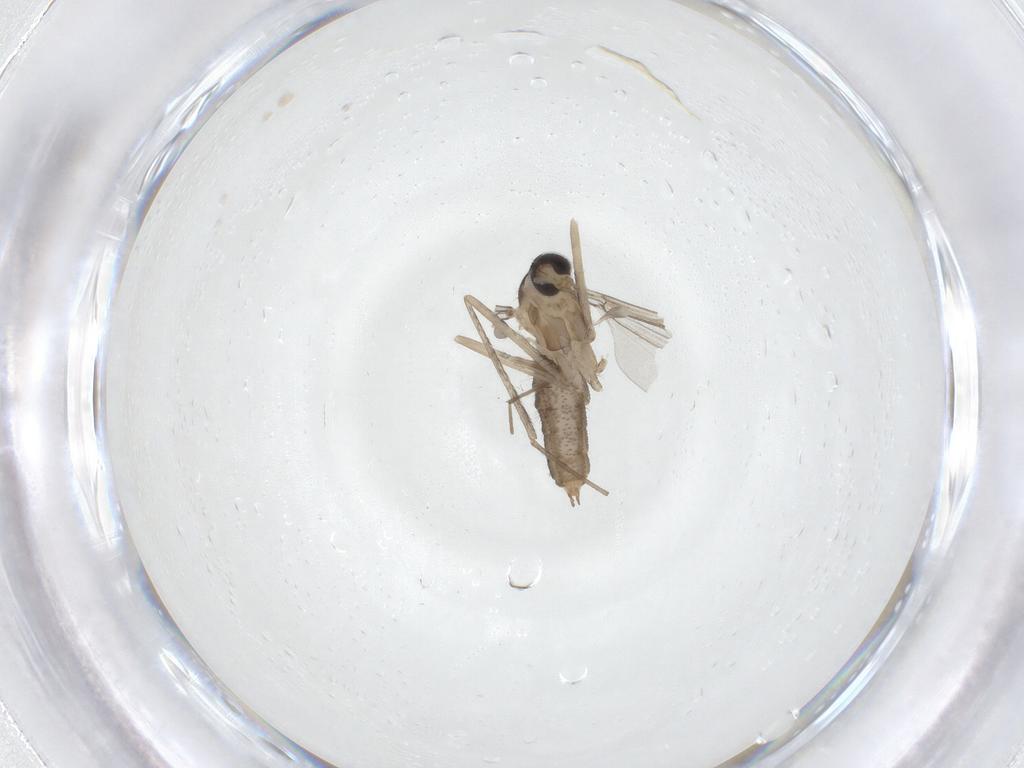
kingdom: Animalia
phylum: Arthropoda
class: Insecta
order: Diptera
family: Cecidomyiidae
